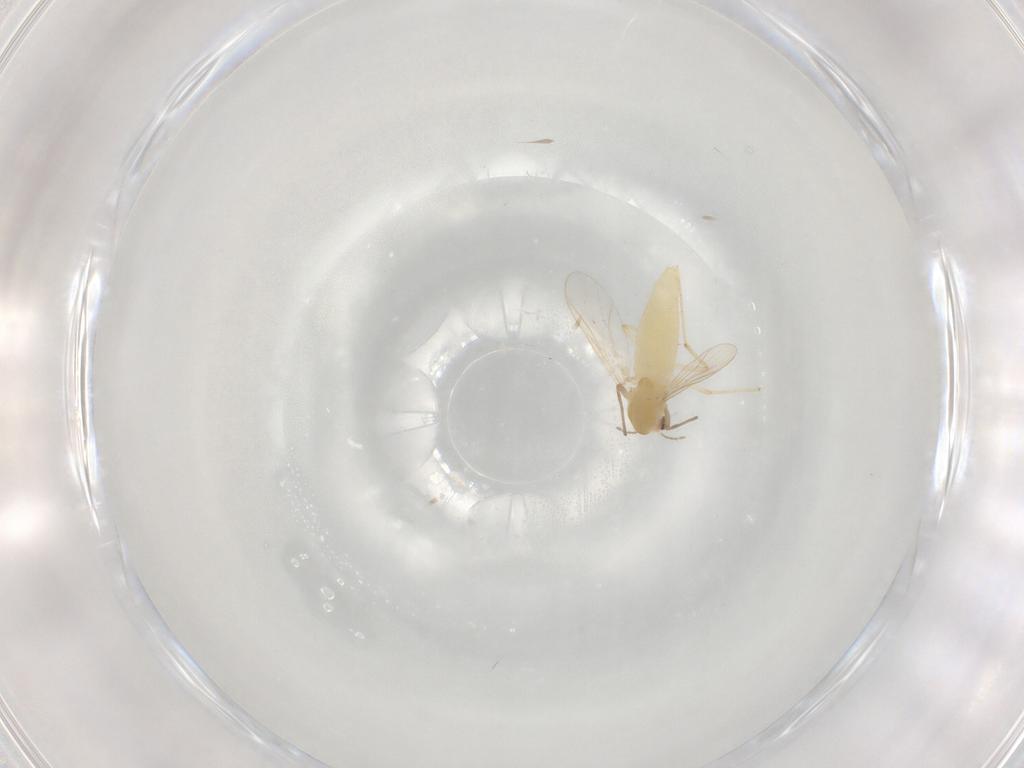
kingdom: Animalia
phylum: Arthropoda
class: Insecta
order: Diptera
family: Chironomidae
